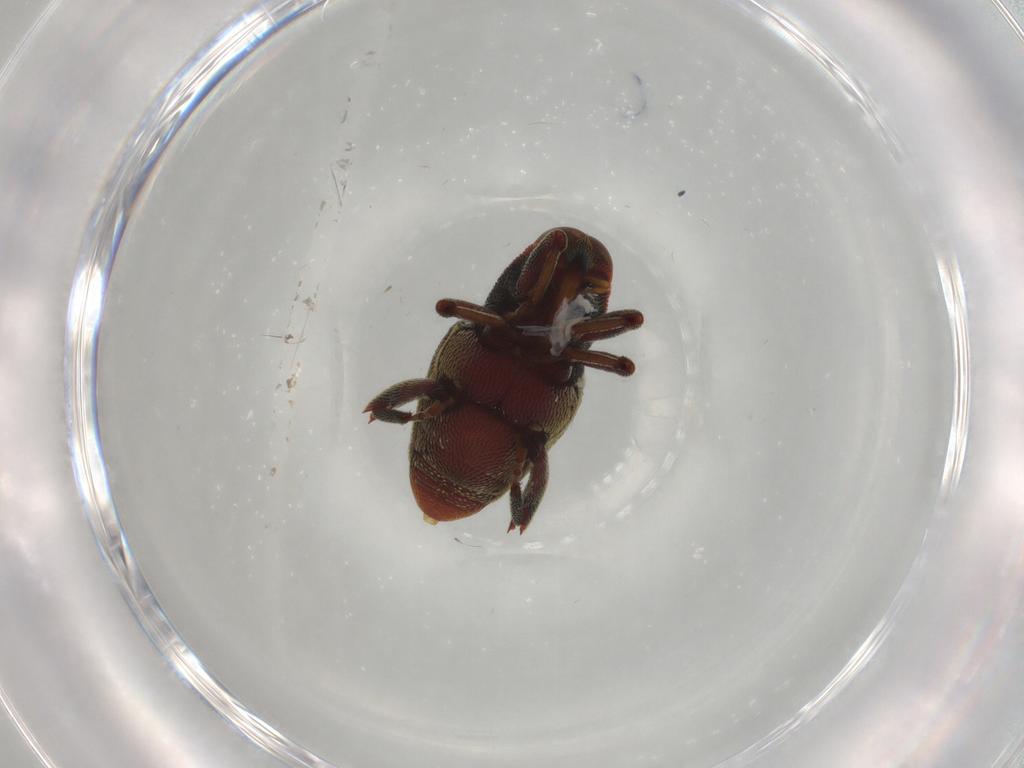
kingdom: Animalia
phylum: Arthropoda
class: Insecta
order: Coleoptera
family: Curculionidae
